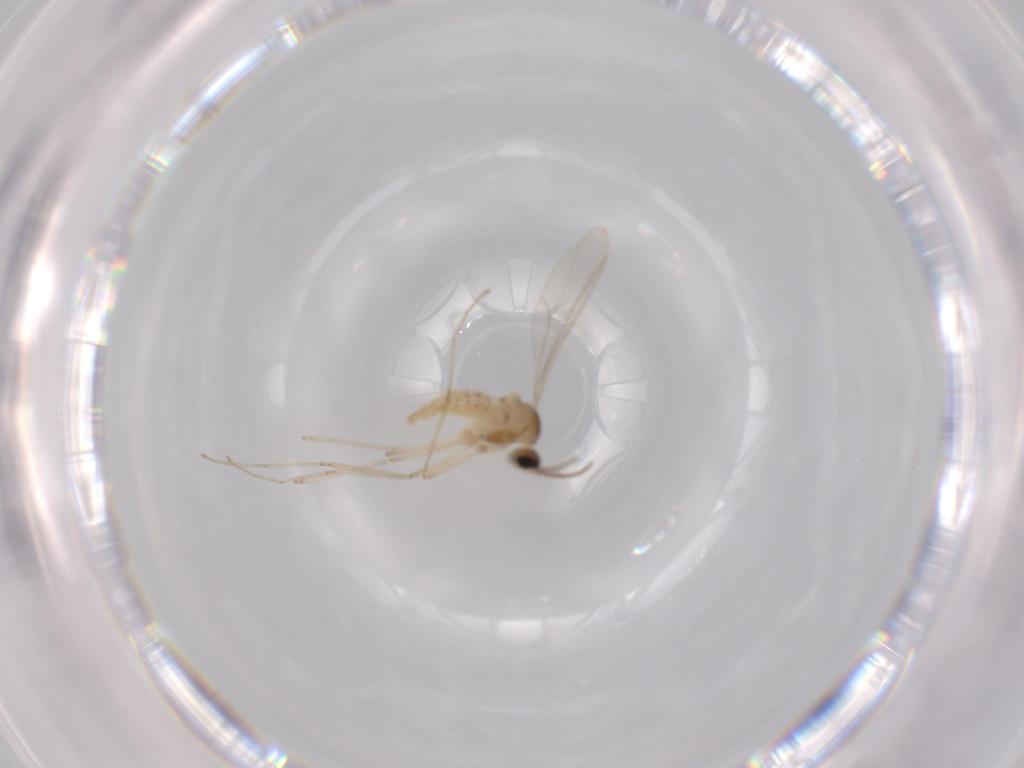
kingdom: Animalia
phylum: Arthropoda
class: Insecta
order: Diptera
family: Cecidomyiidae
